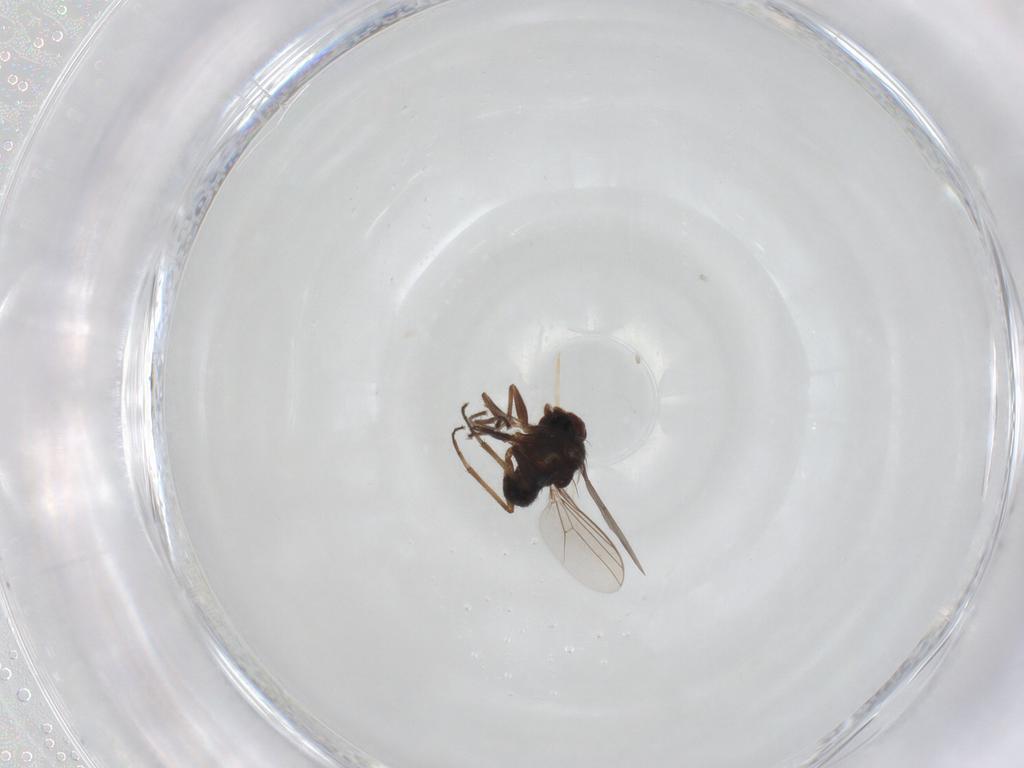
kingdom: Animalia
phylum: Arthropoda
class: Insecta
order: Diptera
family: Dolichopodidae
